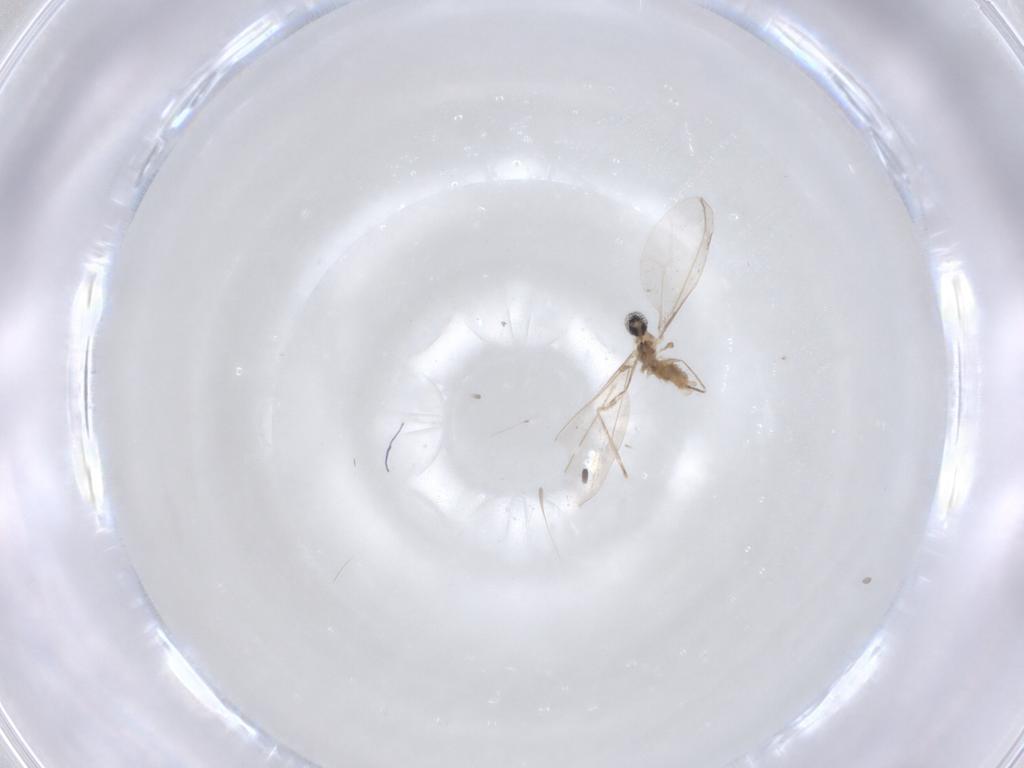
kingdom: Animalia
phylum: Arthropoda
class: Insecta
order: Diptera
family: Cecidomyiidae
